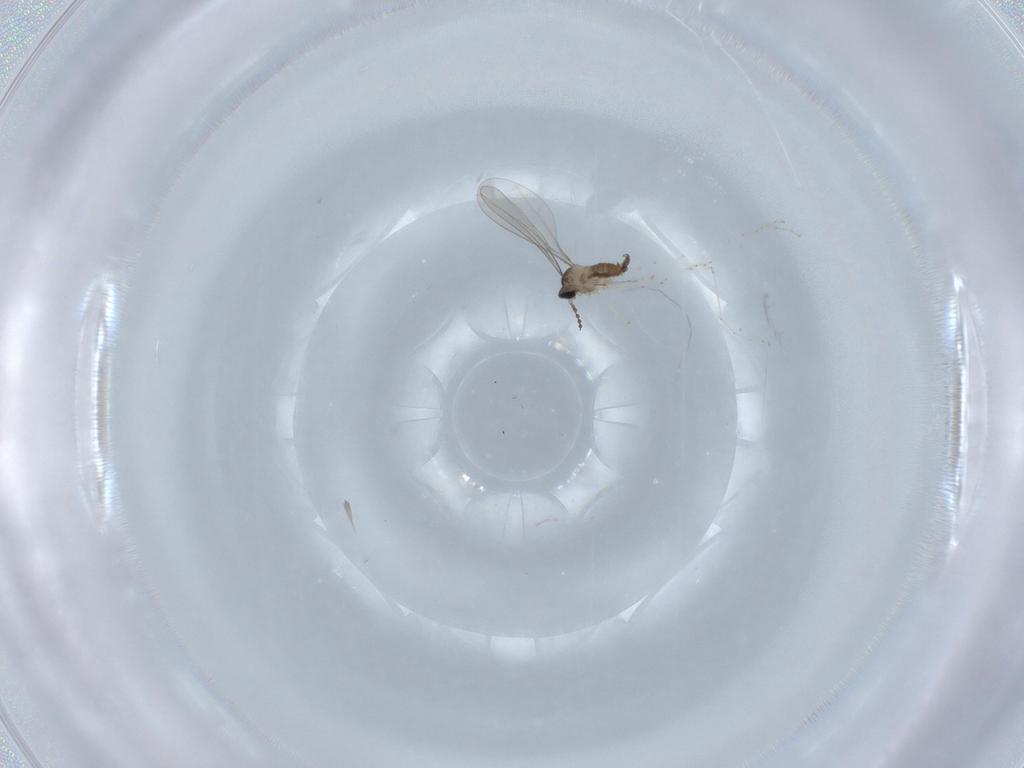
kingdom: Animalia
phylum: Arthropoda
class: Insecta
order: Diptera
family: Cecidomyiidae
